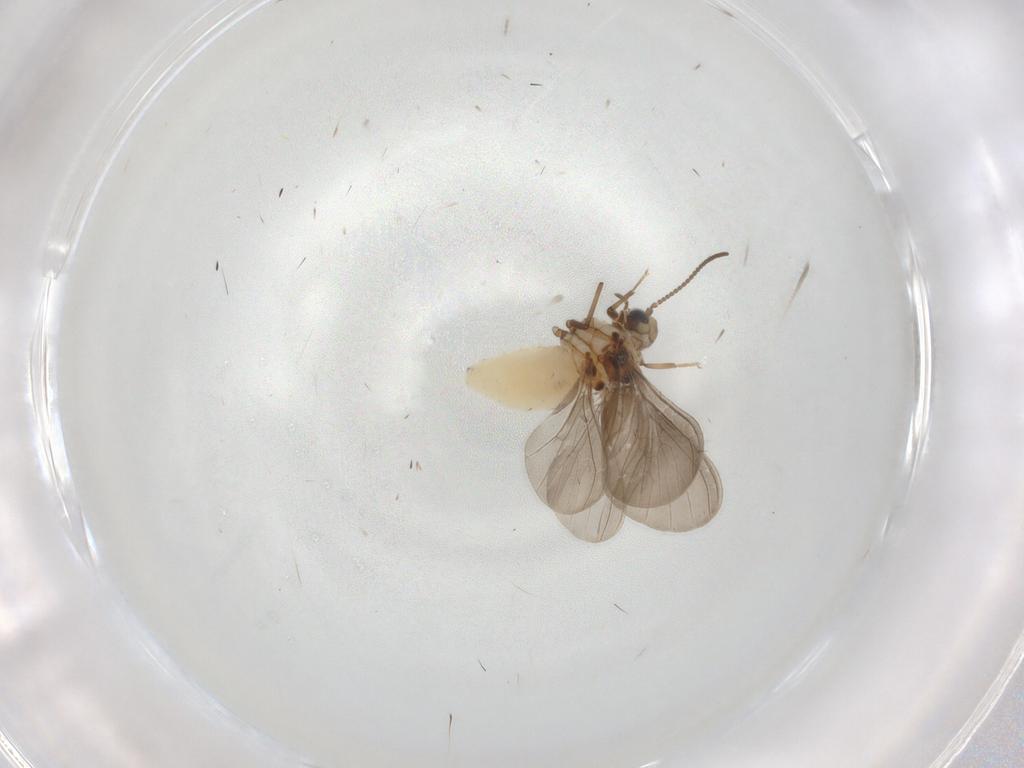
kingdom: Animalia
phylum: Arthropoda
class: Insecta
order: Neuroptera
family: Coniopterygidae
